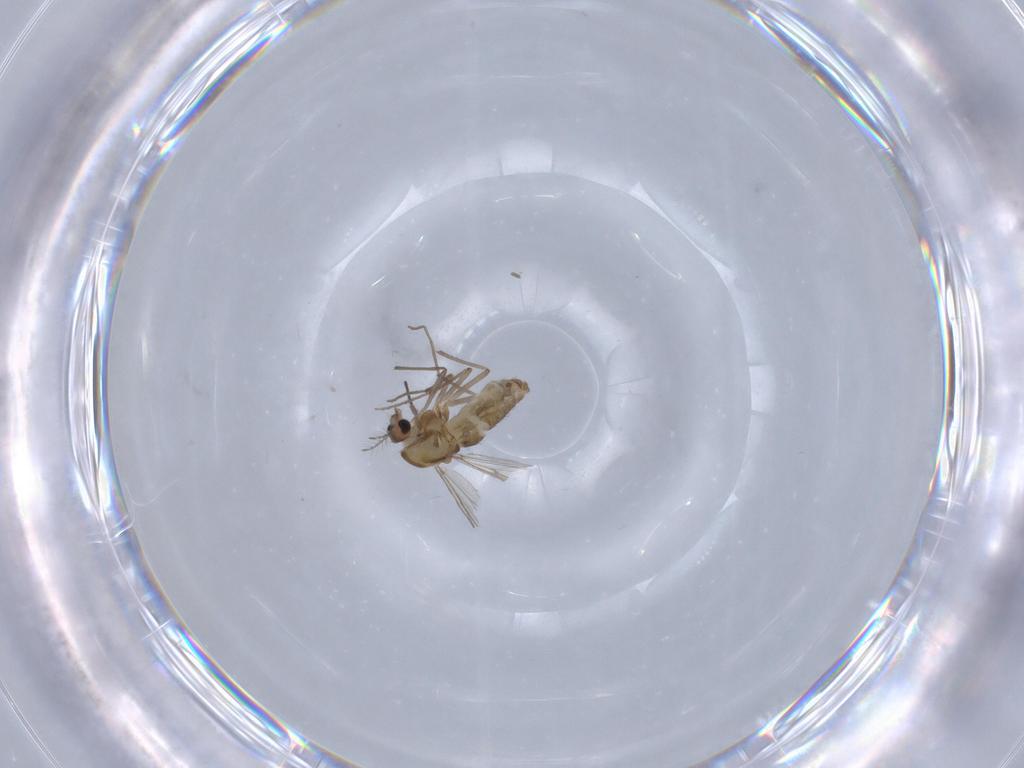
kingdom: Animalia
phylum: Arthropoda
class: Insecta
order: Diptera
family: Chironomidae
